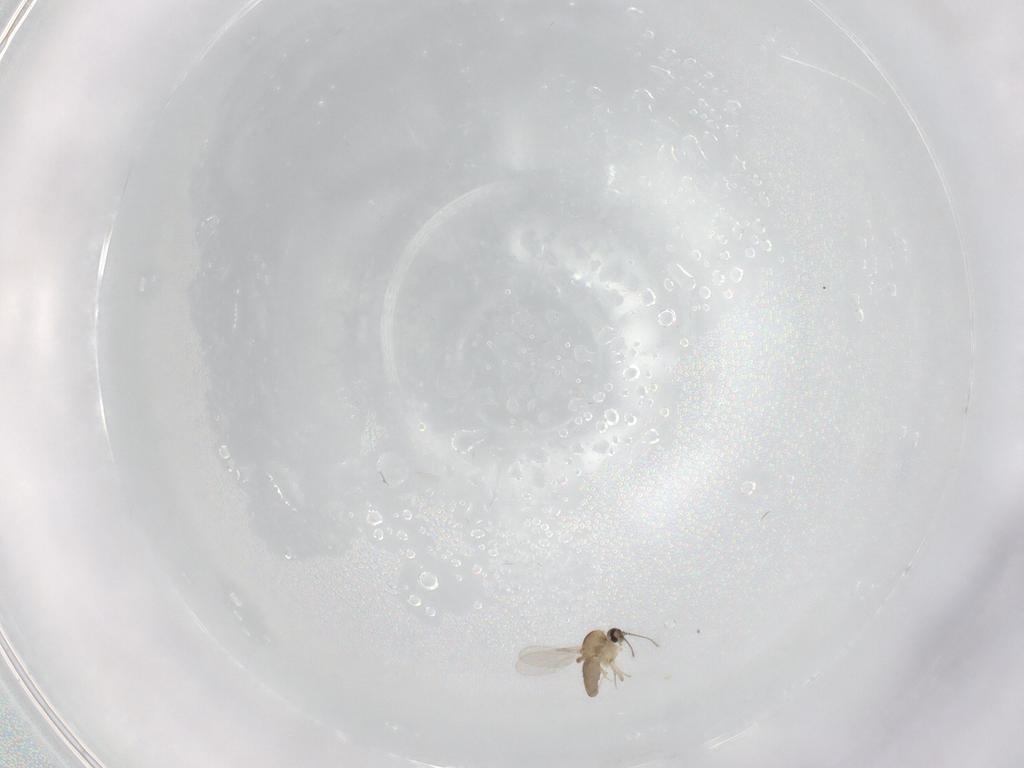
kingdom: Animalia
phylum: Arthropoda
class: Insecta
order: Diptera
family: Ceratopogonidae
